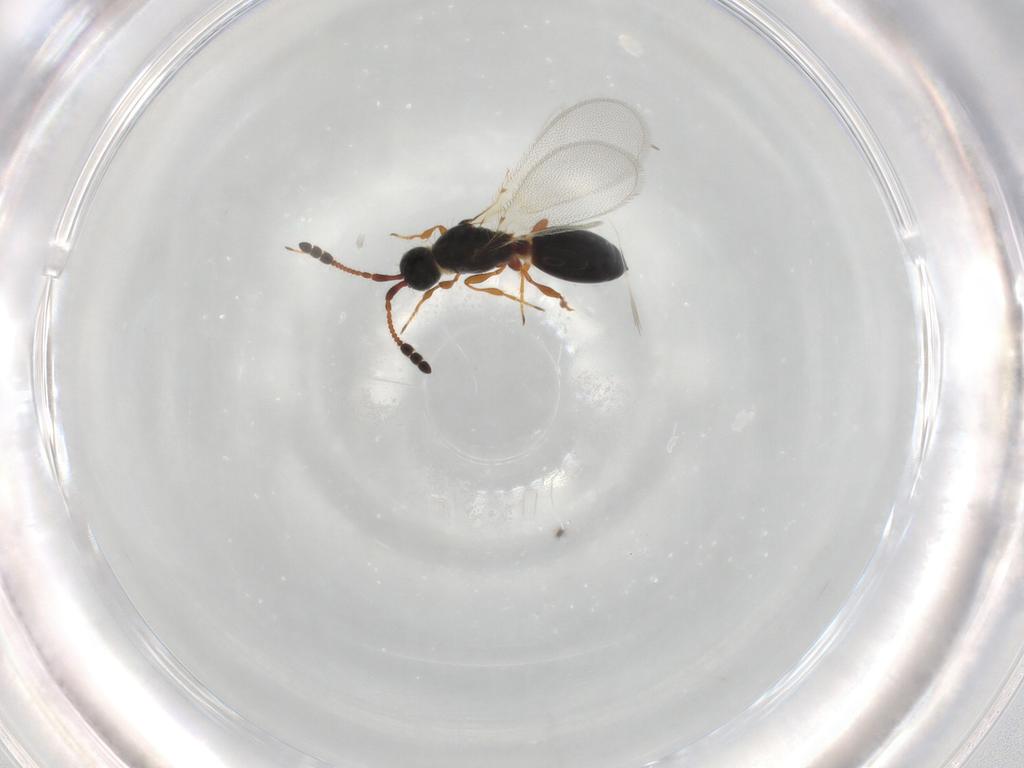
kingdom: Animalia
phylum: Arthropoda
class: Insecta
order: Hymenoptera
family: Diapriidae
